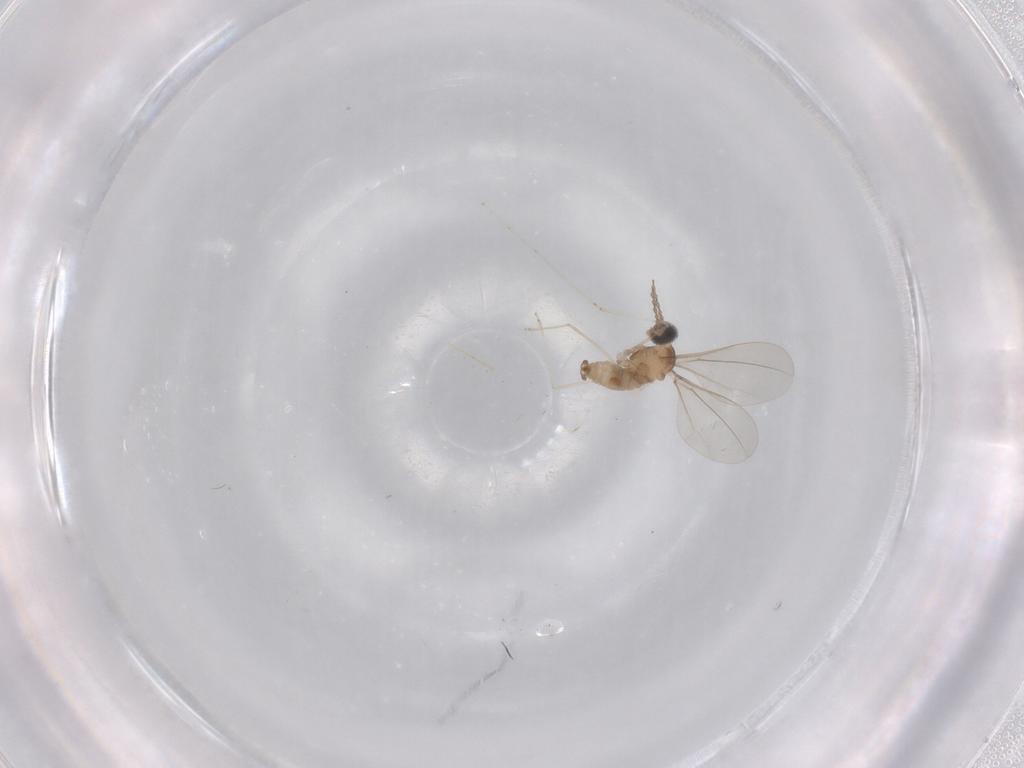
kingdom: Animalia
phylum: Arthropoda
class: Insecta
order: Diptera
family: Cecidomyiidae
